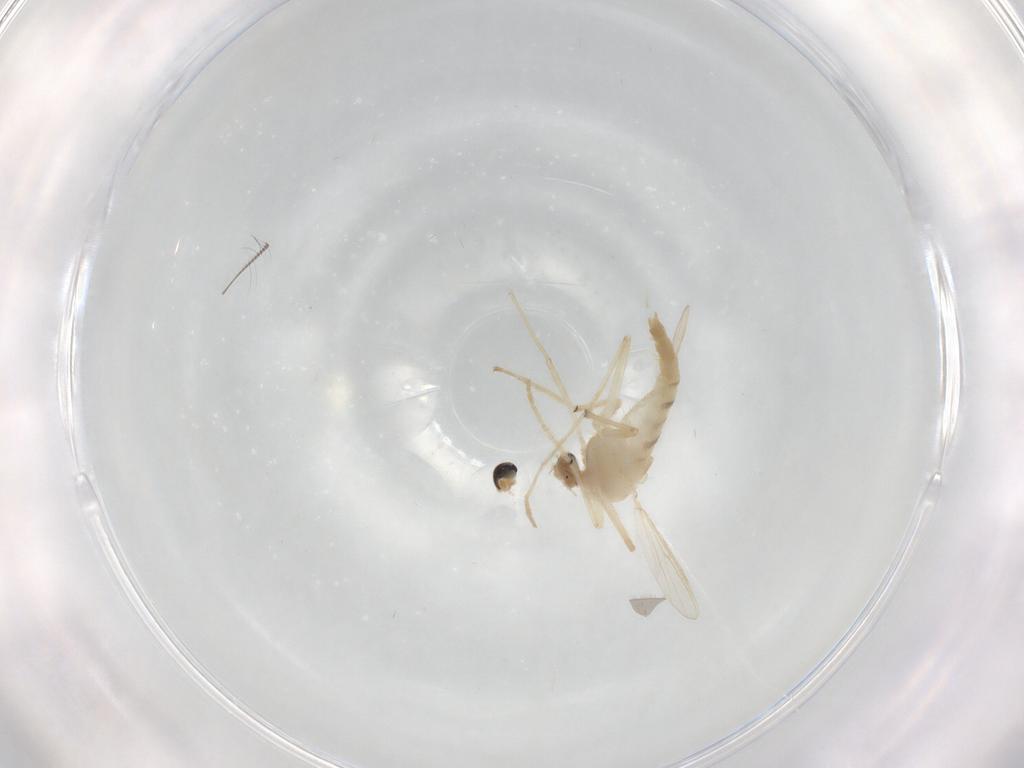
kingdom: Animalia
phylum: Arthropoda
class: Insecta
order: Diptera
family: Chironomidae
